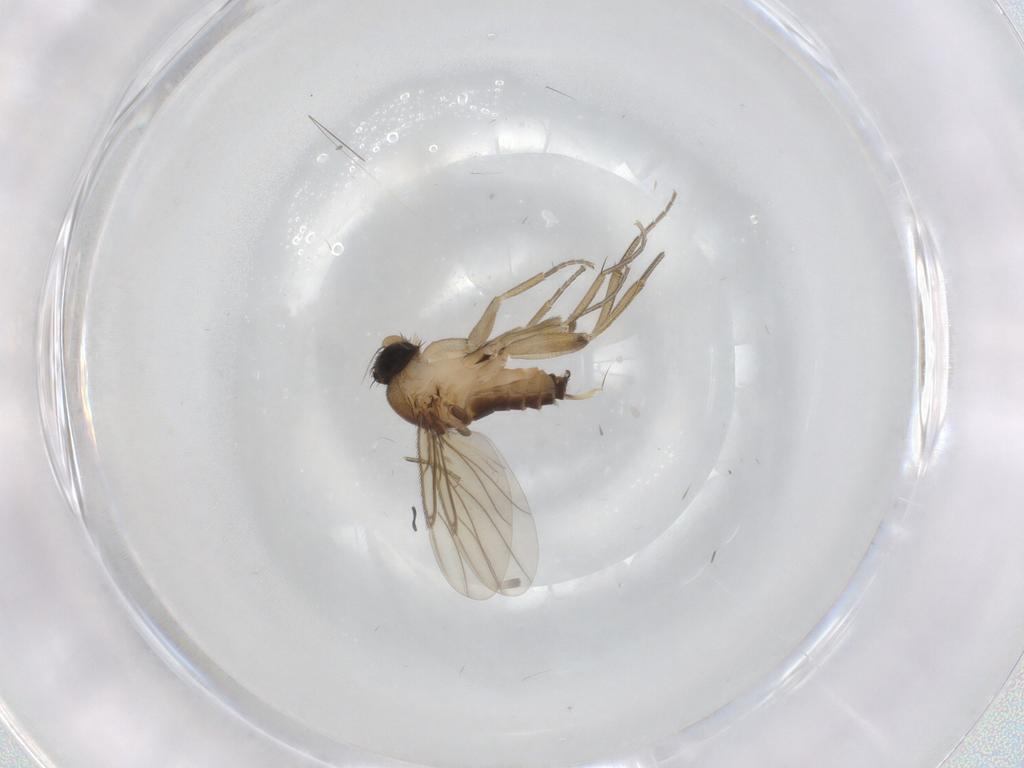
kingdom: Animalia
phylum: Arthropoda
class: Insecta
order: Diptera
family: Phoridae
